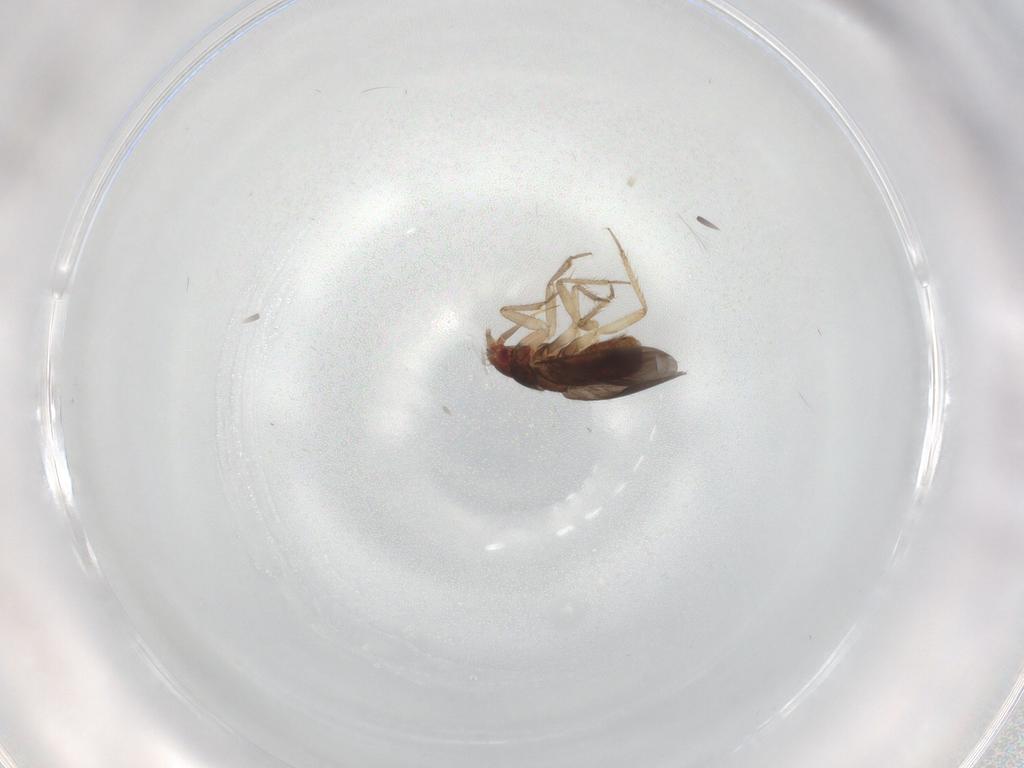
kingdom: Animalia
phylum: Arthropoda
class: Insecta
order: Hemiptera
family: Ceratocombidae
